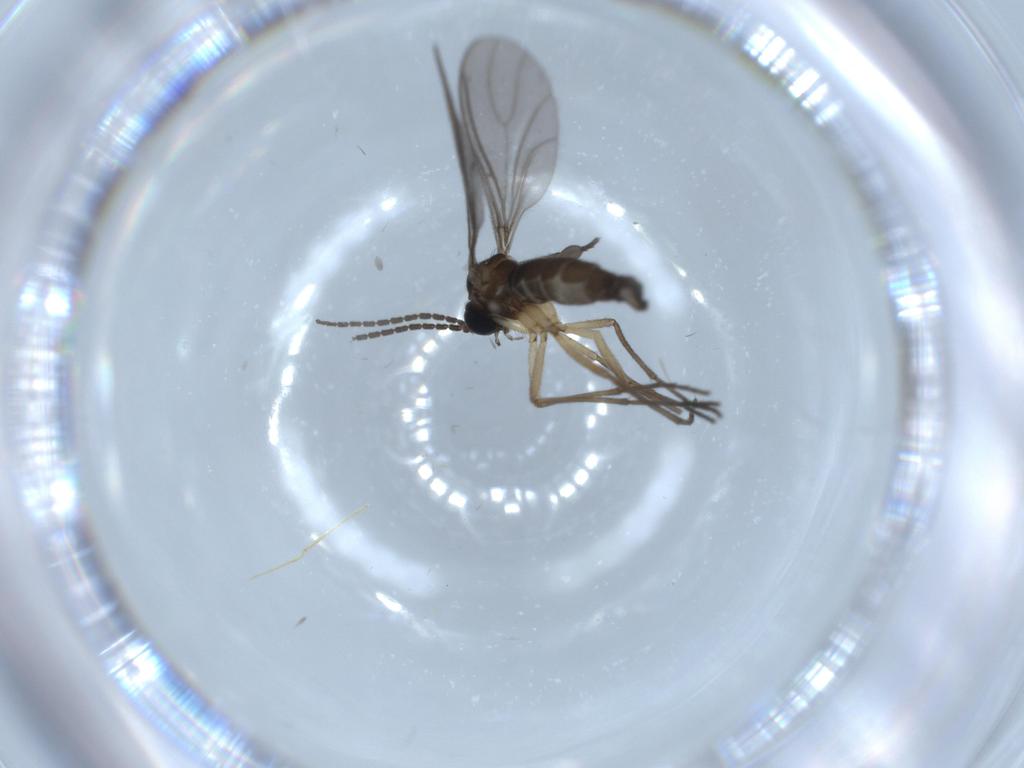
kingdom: Animalia
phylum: Arthropoda
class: Insecta
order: Diptera
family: Sciaridae
